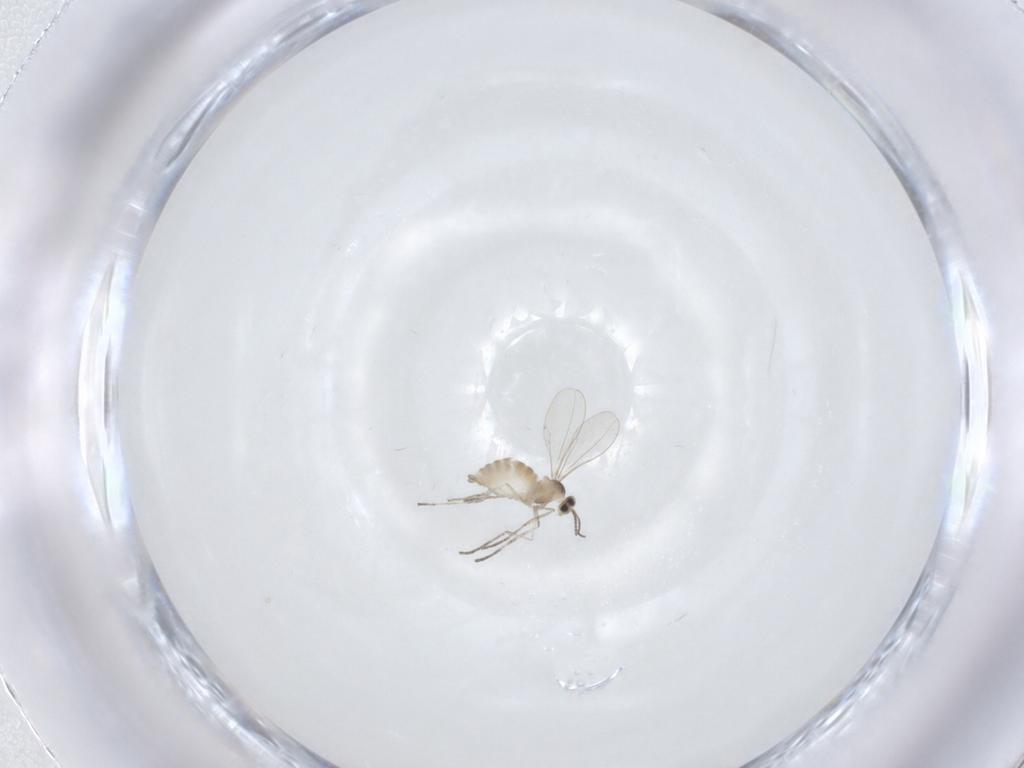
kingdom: Animalia
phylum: Arthropoda
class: Insecta
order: Diptera
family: Cecidomyiidae
